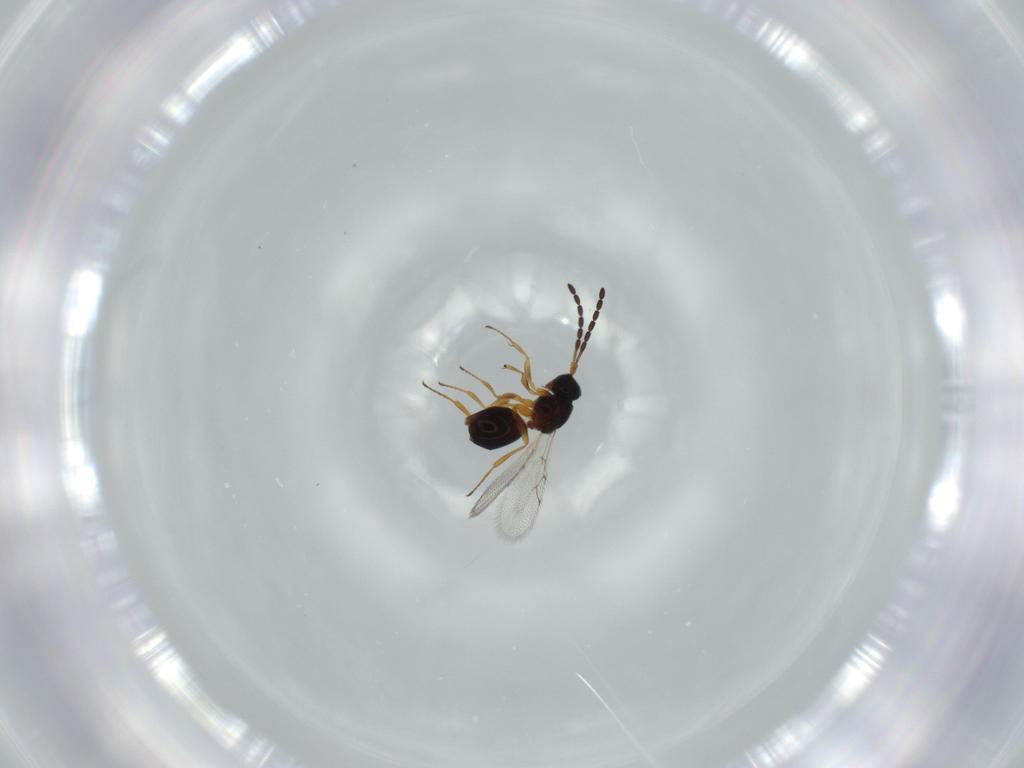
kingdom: Animalia
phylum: Arthropoda
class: Insecta
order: Hymenoptera
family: Figitidae
